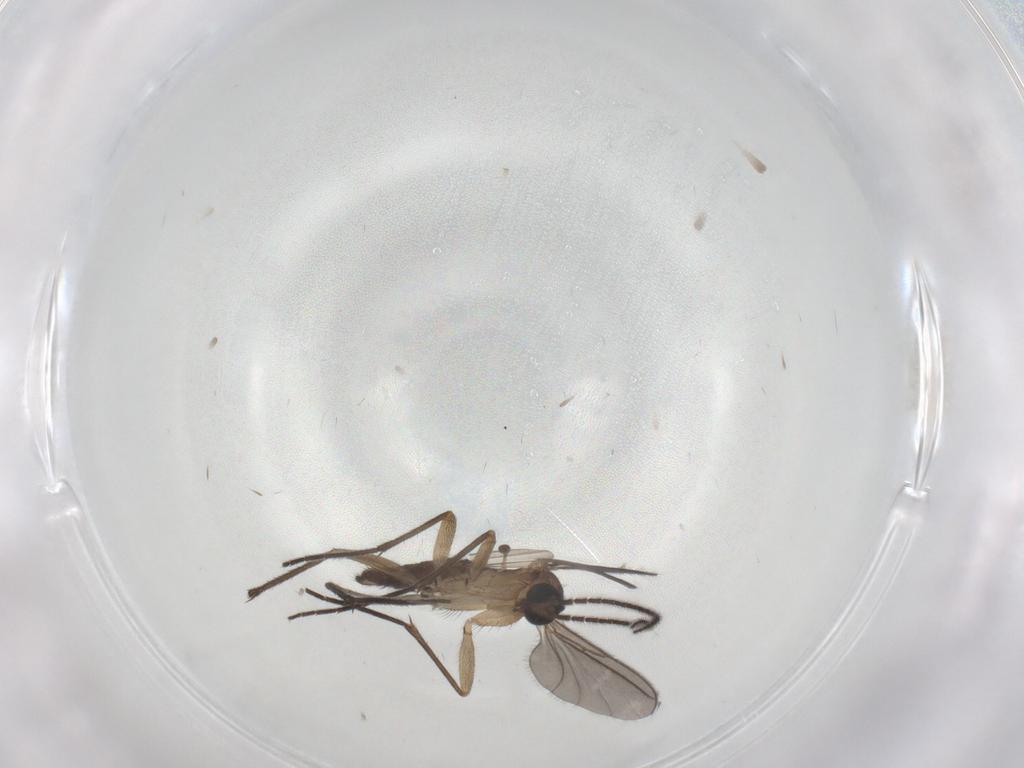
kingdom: Animalia
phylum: Arthropoda
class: Insecta
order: Diptera
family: Sciaridae
